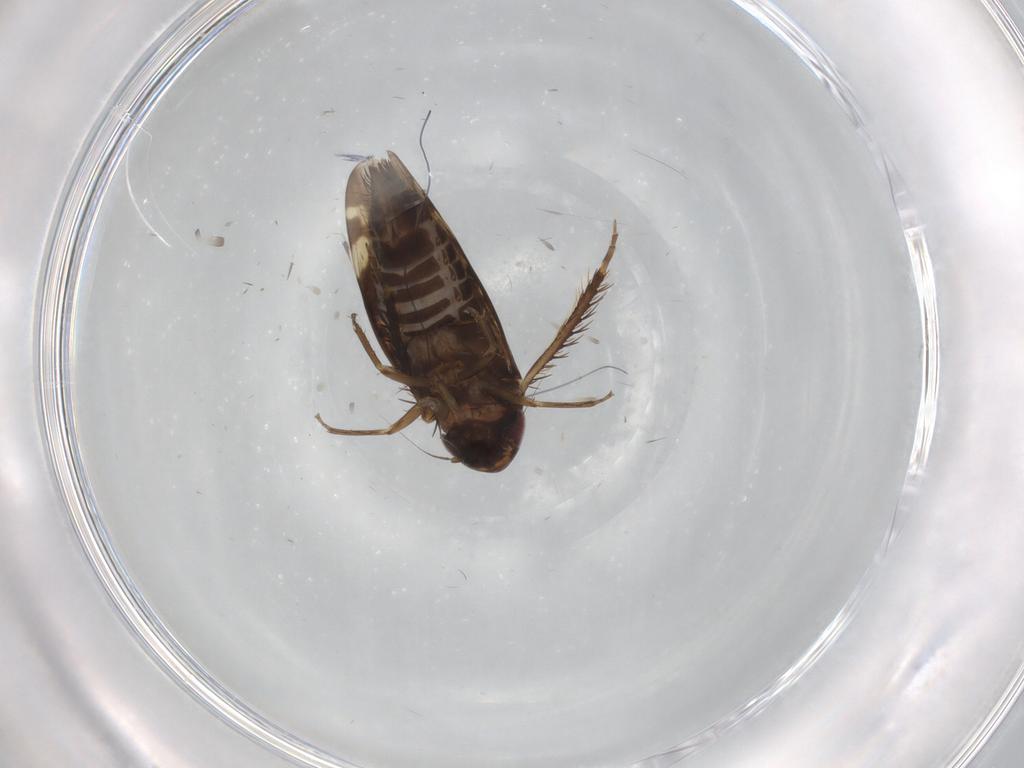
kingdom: Animalia
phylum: Arthropoda
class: Insecta
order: Hemiptera
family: Cicadellidae
